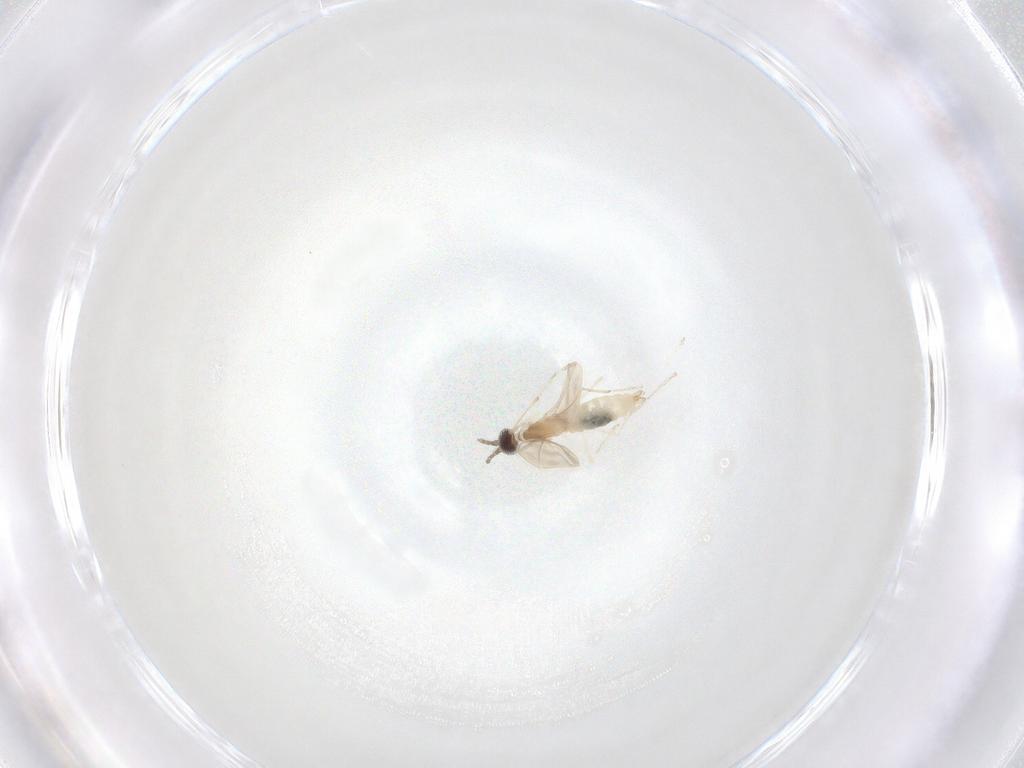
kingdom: Animalia
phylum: Arthropoda
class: Insecta
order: Diptera
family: Cecidomyiidae
